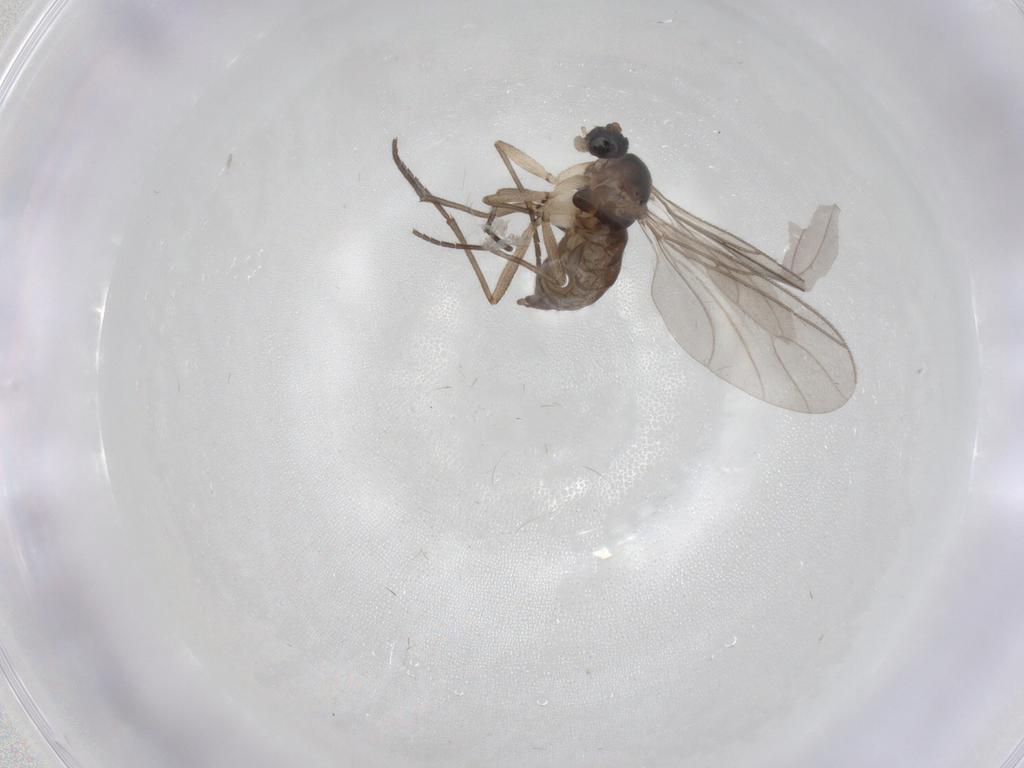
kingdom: Animalia
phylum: Arthropoda
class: Insecta
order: Diptera
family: Sciaridae
